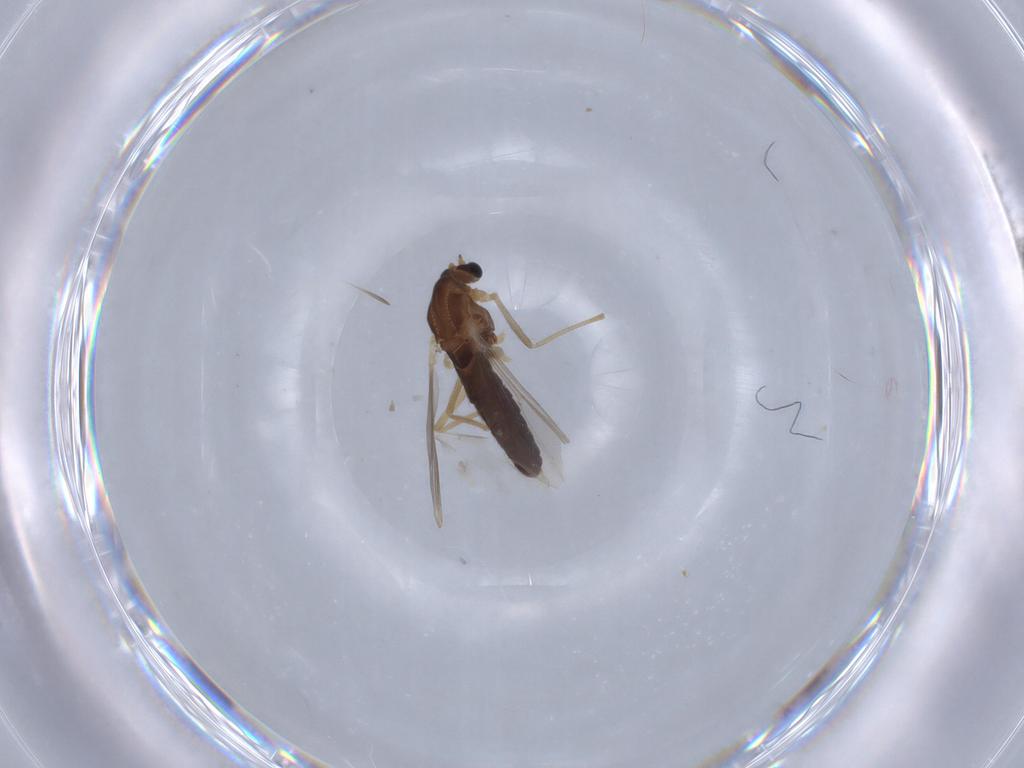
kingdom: Animalia
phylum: Arthropoda
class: Insecta
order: Diptera
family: Chironomidae
